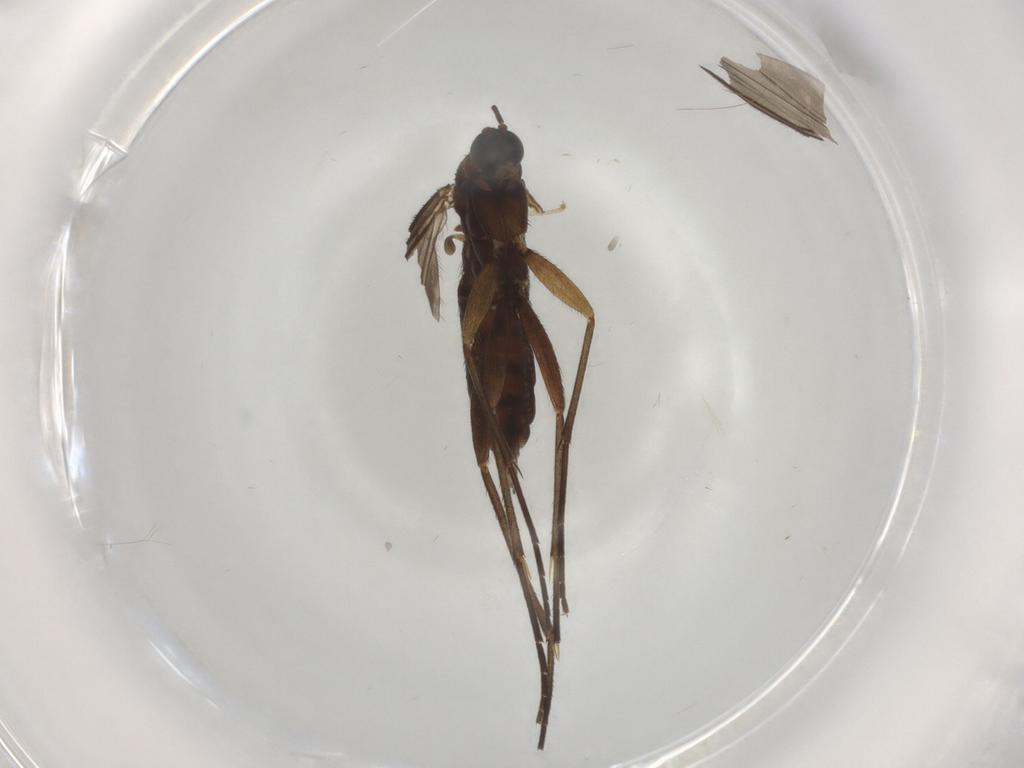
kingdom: Animalia
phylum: Arthropoda
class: Insecta
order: Diptera
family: Sciaridae
